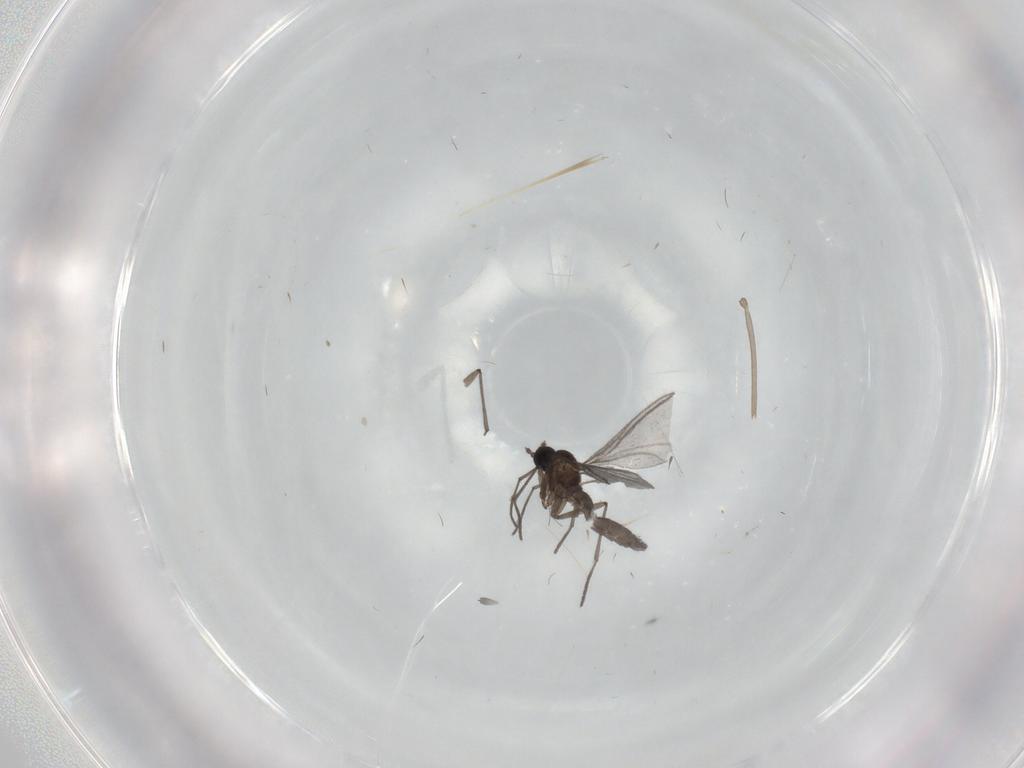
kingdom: Animalia
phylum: Arthropoda
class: Insecta
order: Diptera
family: Sciaridae
